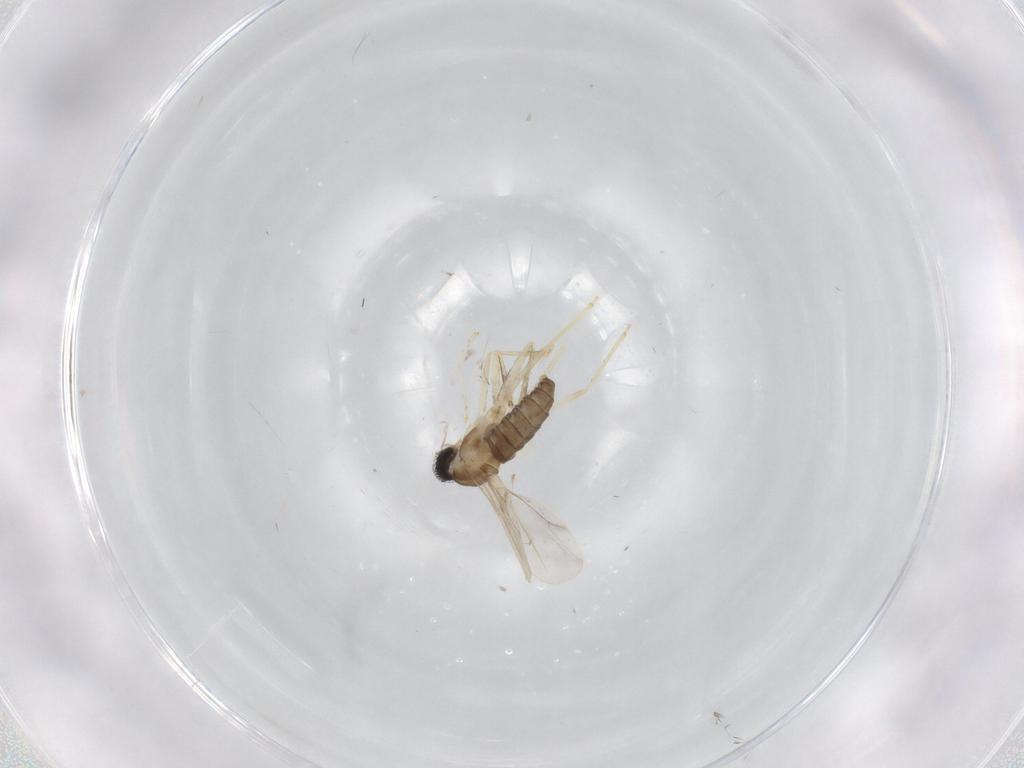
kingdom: Animalia
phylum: Arthropoda
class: Insecta
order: Diptera
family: Cecidomyiidae
